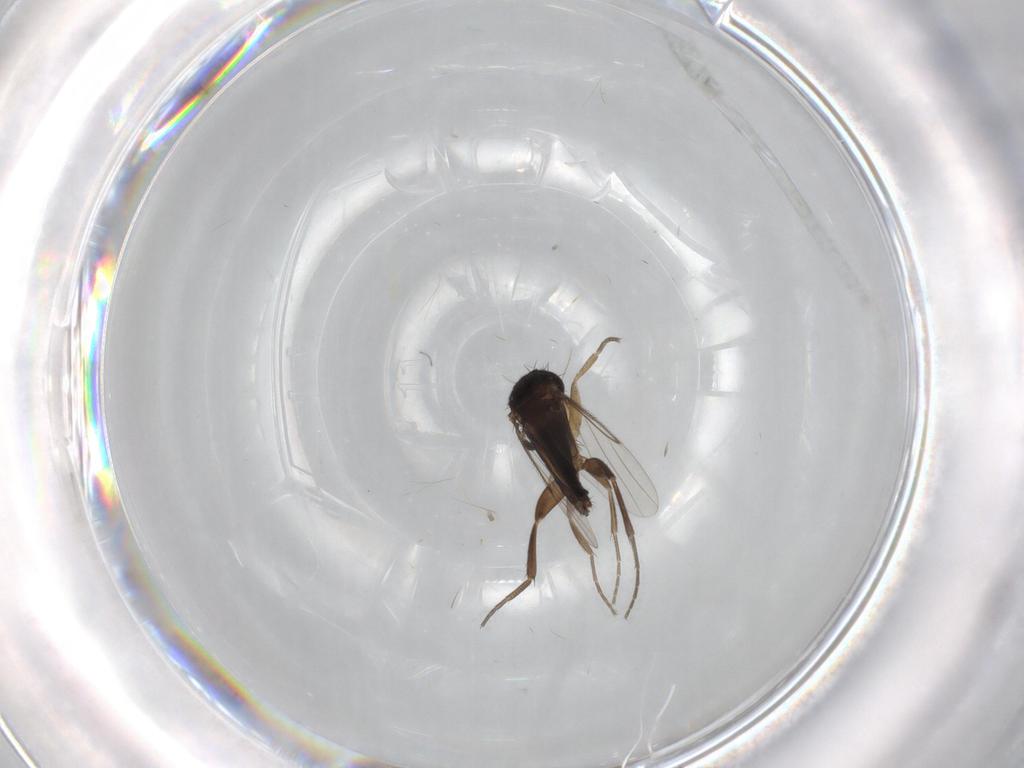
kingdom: Animalia
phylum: Arthropoda
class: Insecta
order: Diptera
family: Phoridae
